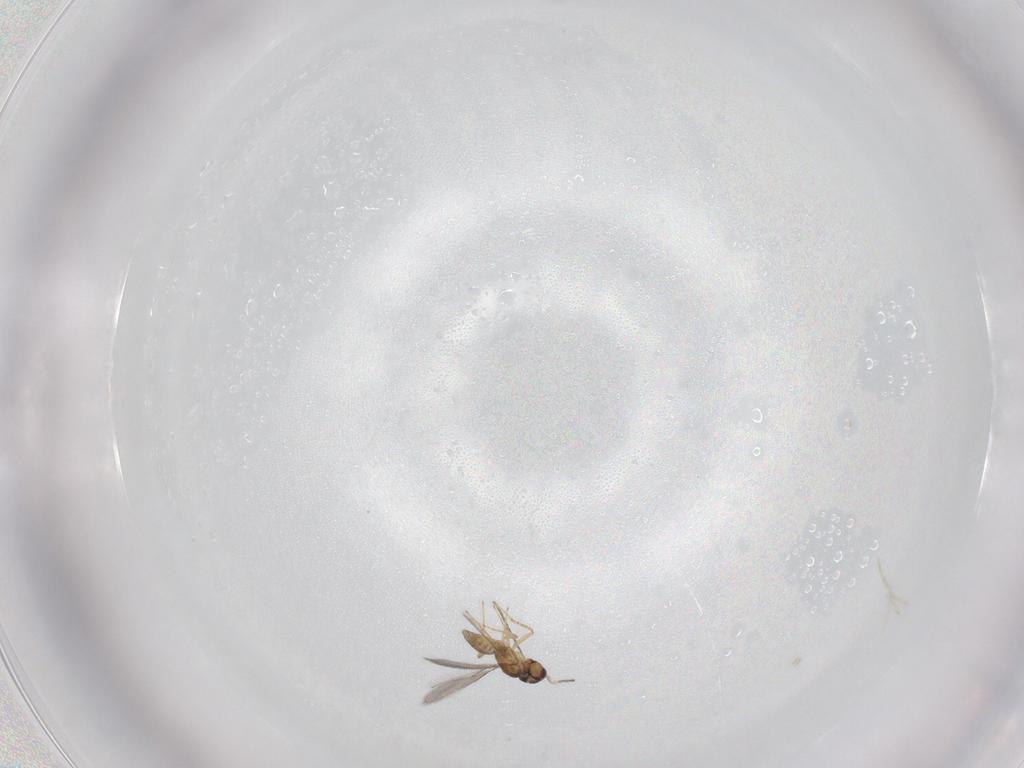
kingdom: Animalia
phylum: Arthropoda
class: Insecta
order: Hymenoptera
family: Mymaridae
